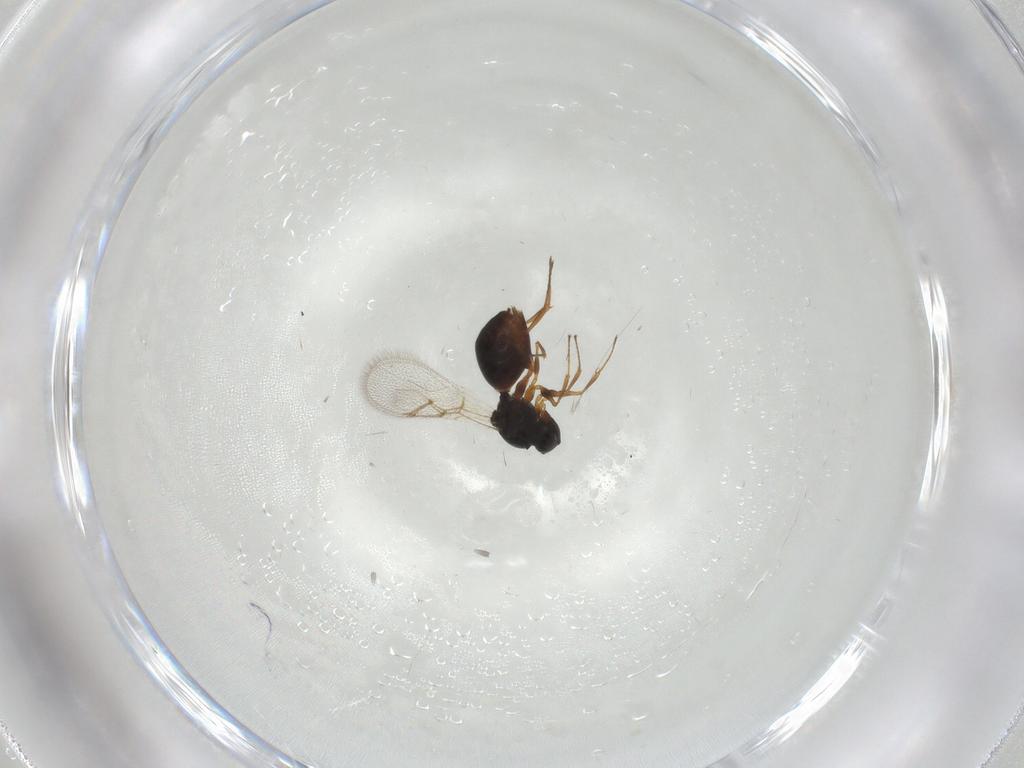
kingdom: Animalia
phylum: Arthropoda
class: Insecta
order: Hymenoptera
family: Figitidae
